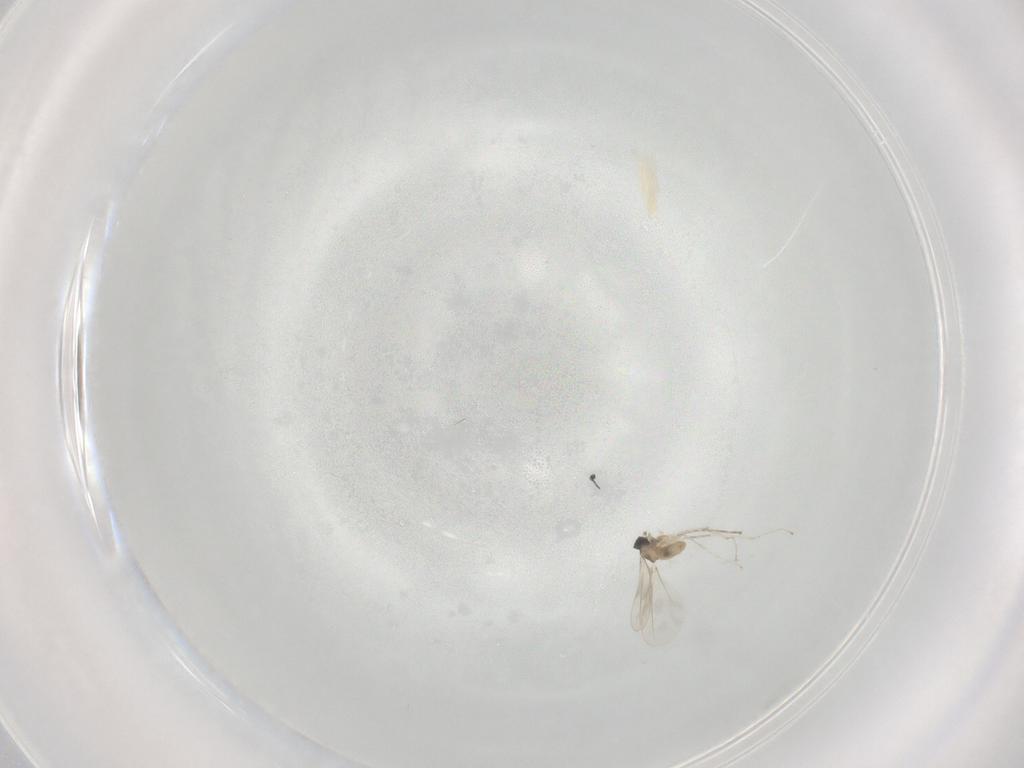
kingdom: Animalia
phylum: Arthropoda
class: Insecta
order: Diptera
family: Cecidomyiidae
